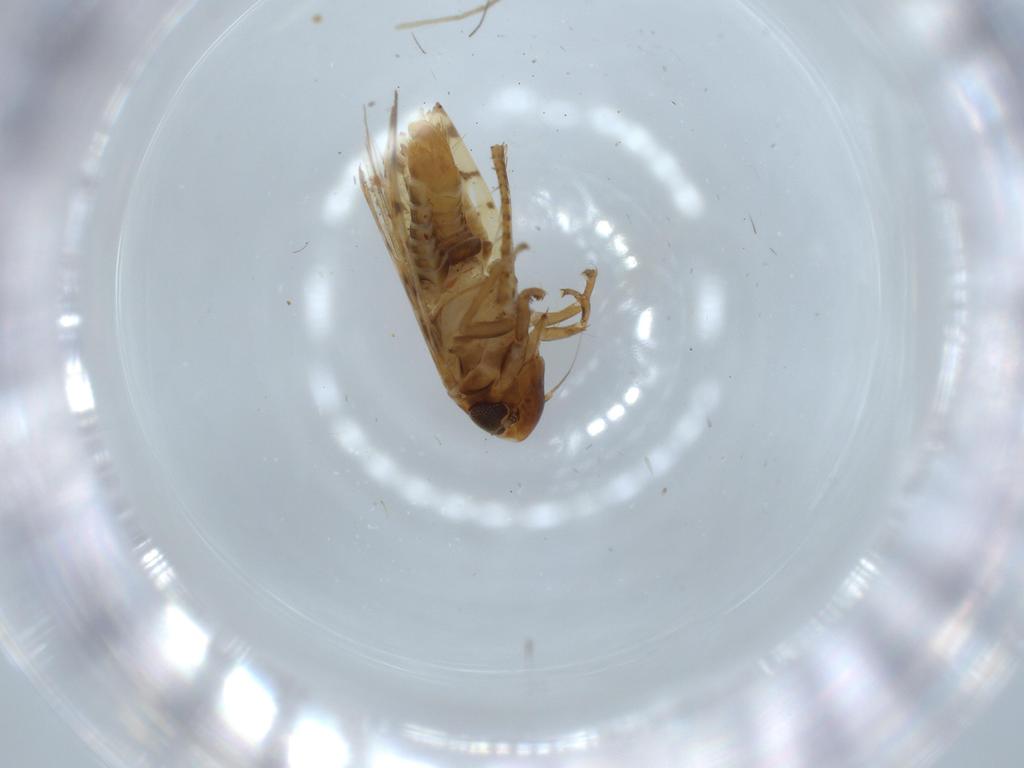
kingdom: Animalia
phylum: Arthropoda
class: Insecta
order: Hemiptera
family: Cicadellidae
